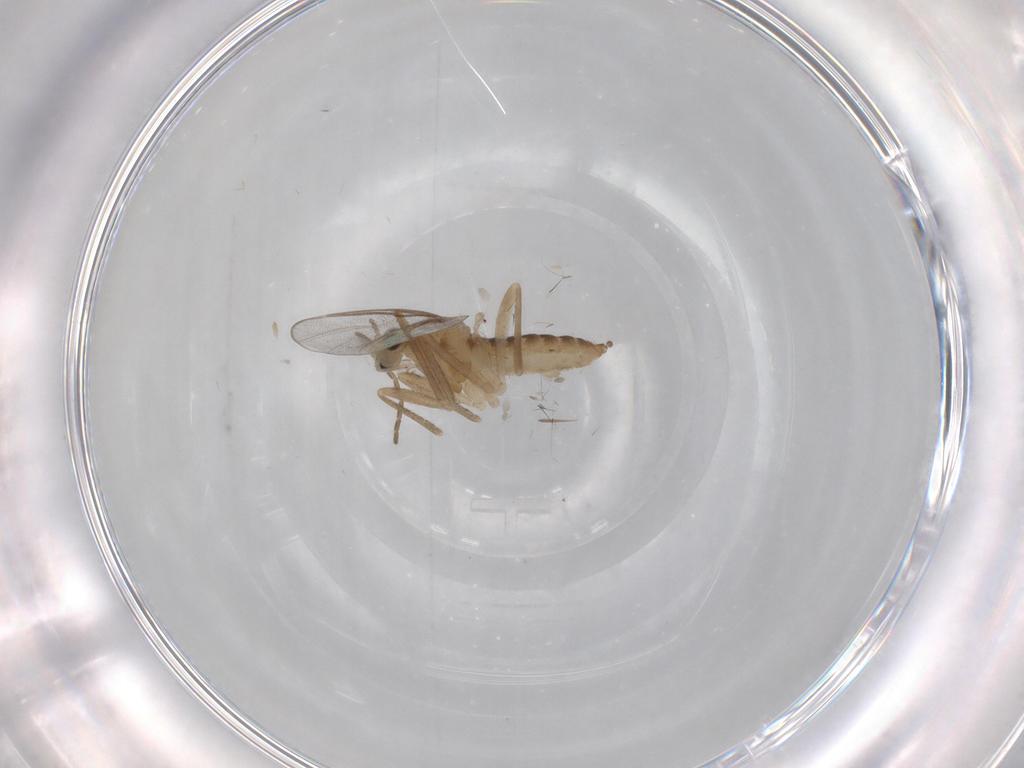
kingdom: Animalia
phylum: Arthropoda
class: Insecta
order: Diptera
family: Cecidomyiidae
